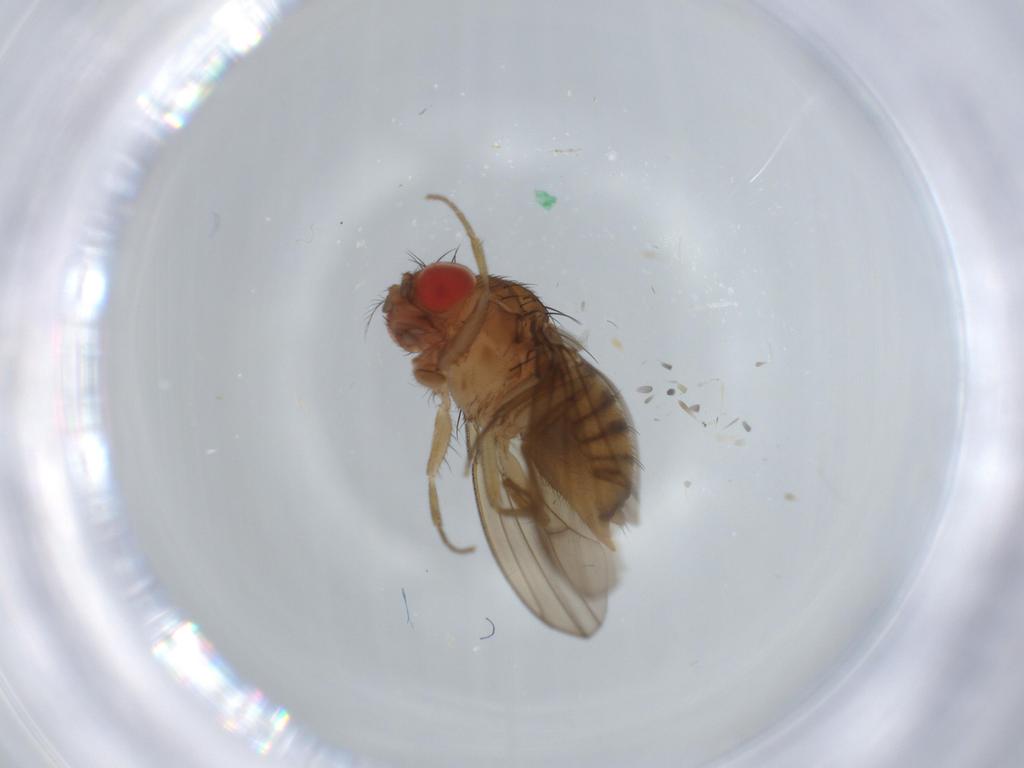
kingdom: Animalia
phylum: Arthropoda
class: Insecta
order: Diptera
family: Drosophilidae
